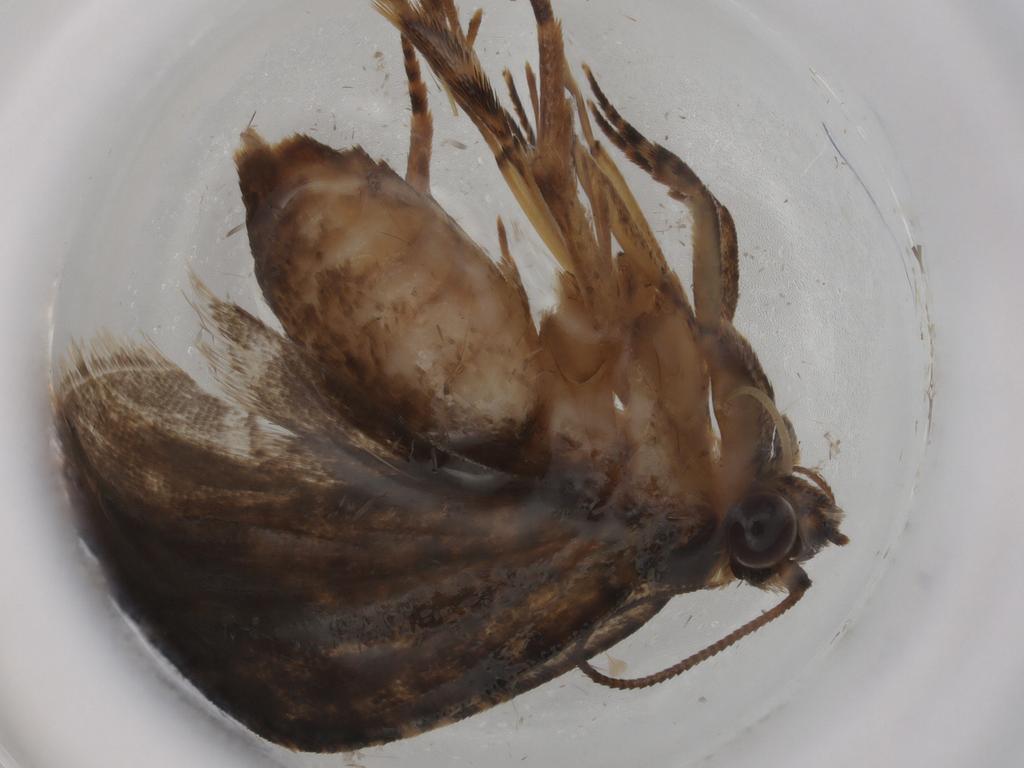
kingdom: Animalia
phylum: Arthropoda
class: Insecta
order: Lepidoptera
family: Tortricidae
